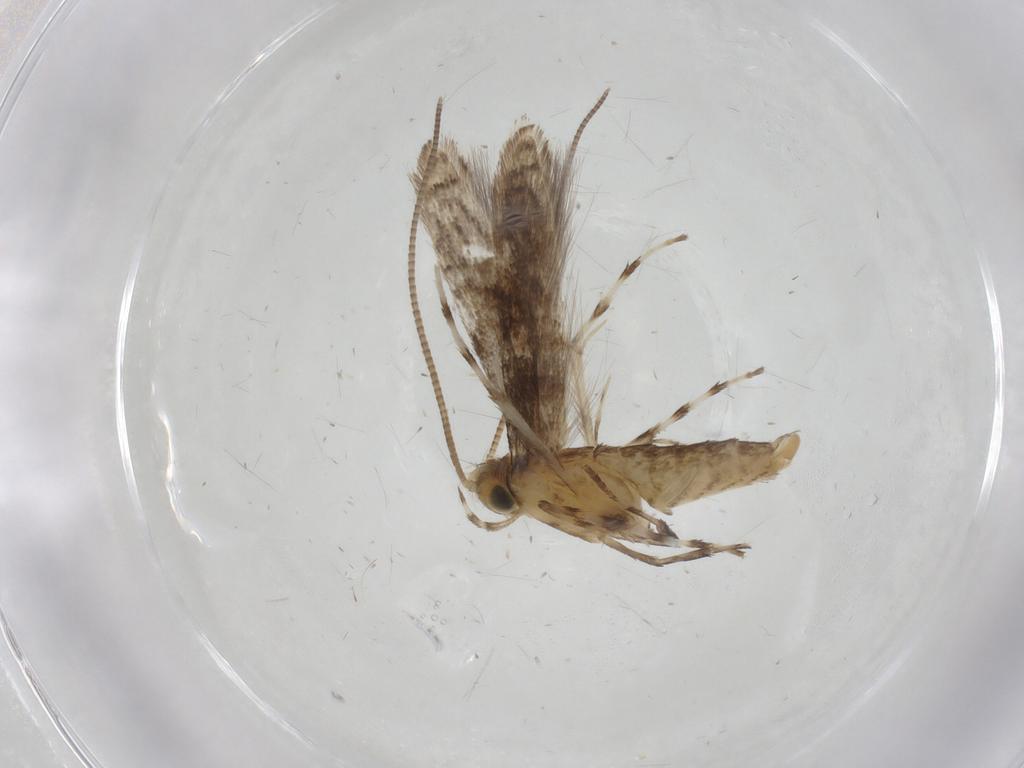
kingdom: Animalia
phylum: Arthropoda
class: Insecta
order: Lepidoptera
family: Gracillariidae
